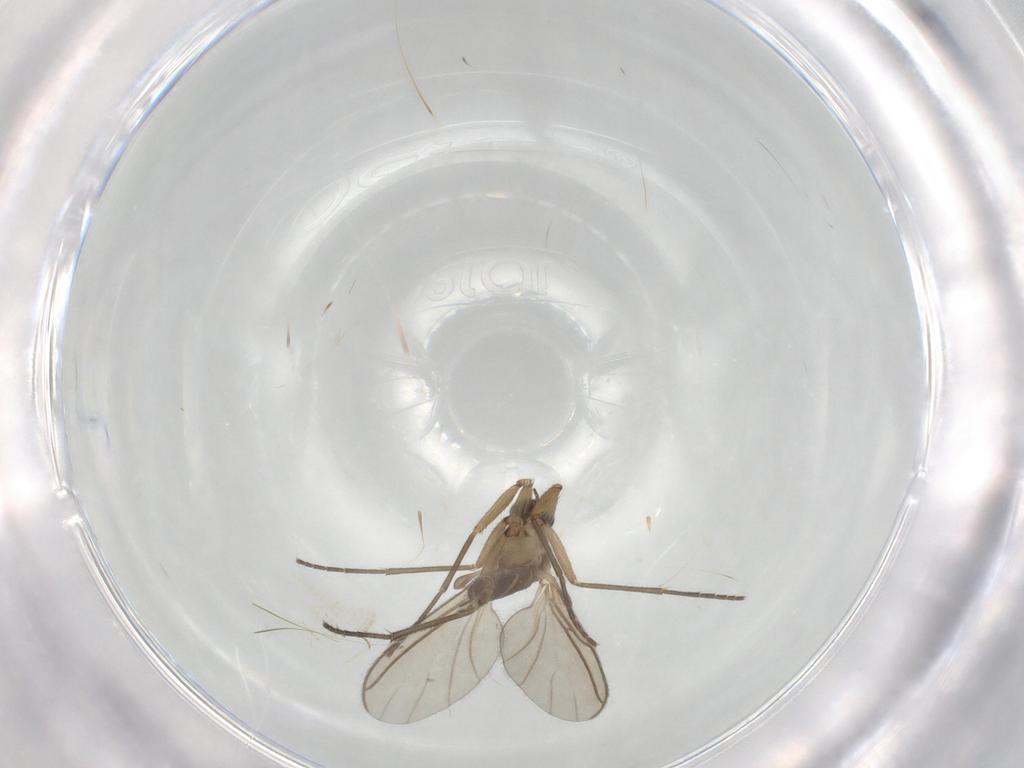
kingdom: Animalia
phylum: Arthropoda
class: Insecta
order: Diptera
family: Sciaridae
